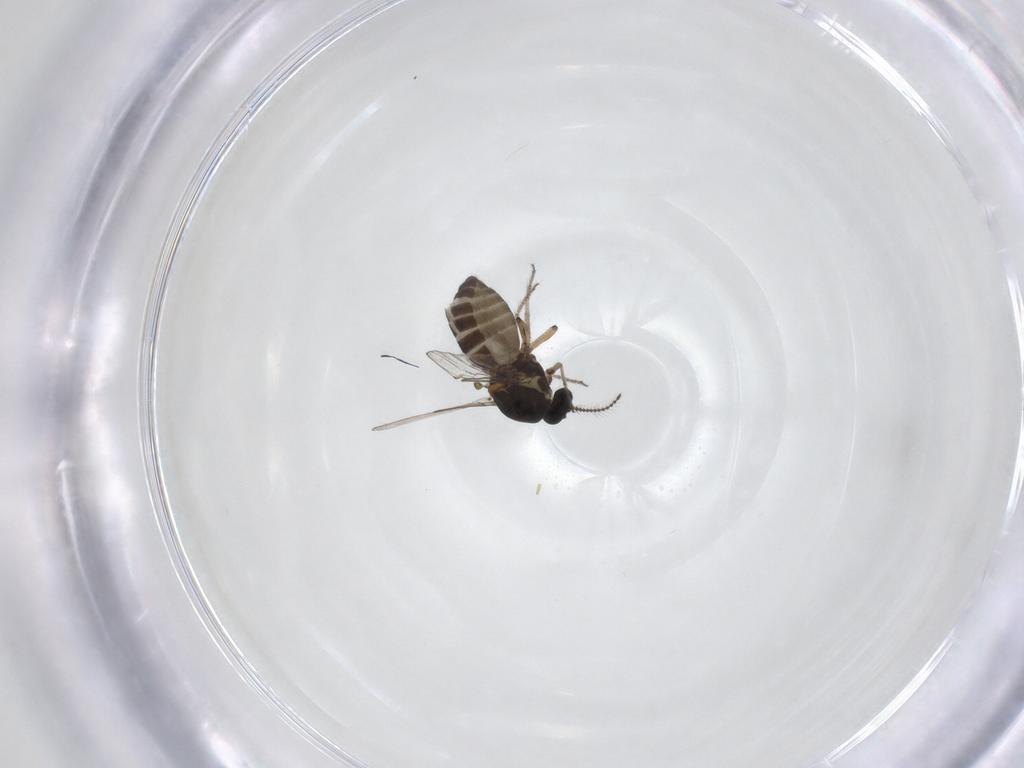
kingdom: Animalia
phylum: Arthropoda
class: Insecta
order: Diptera
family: Ceratopogonidae
